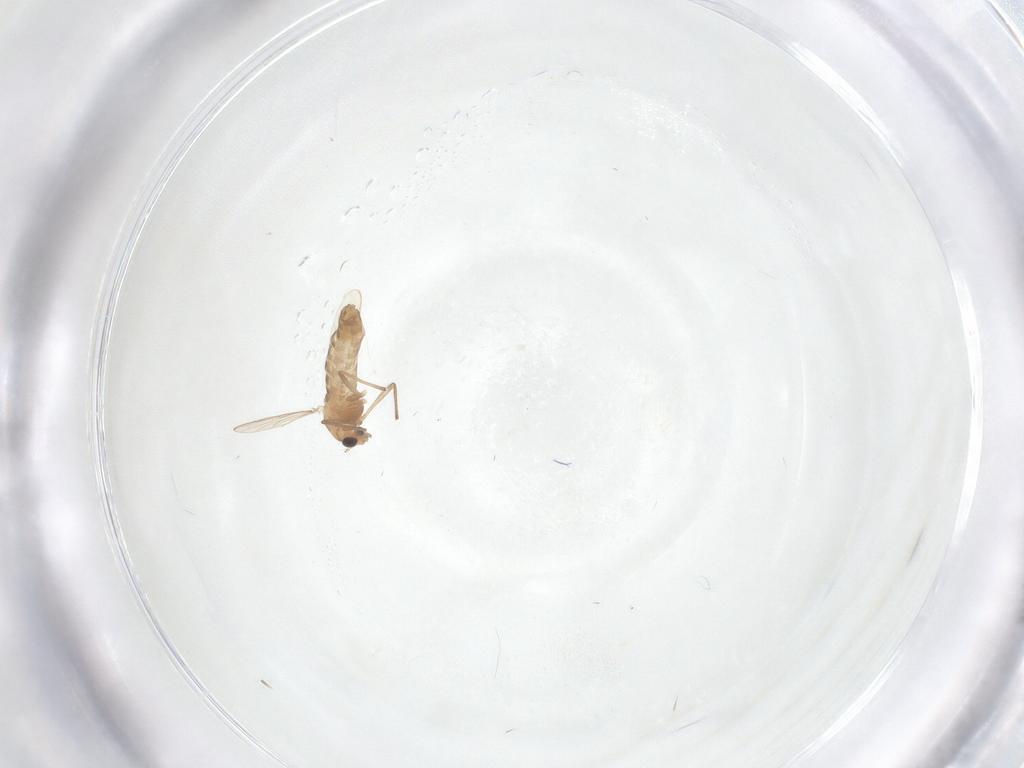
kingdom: Animalia
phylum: Arthropoda
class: Insecta
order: Diptera
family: Chironomidae
